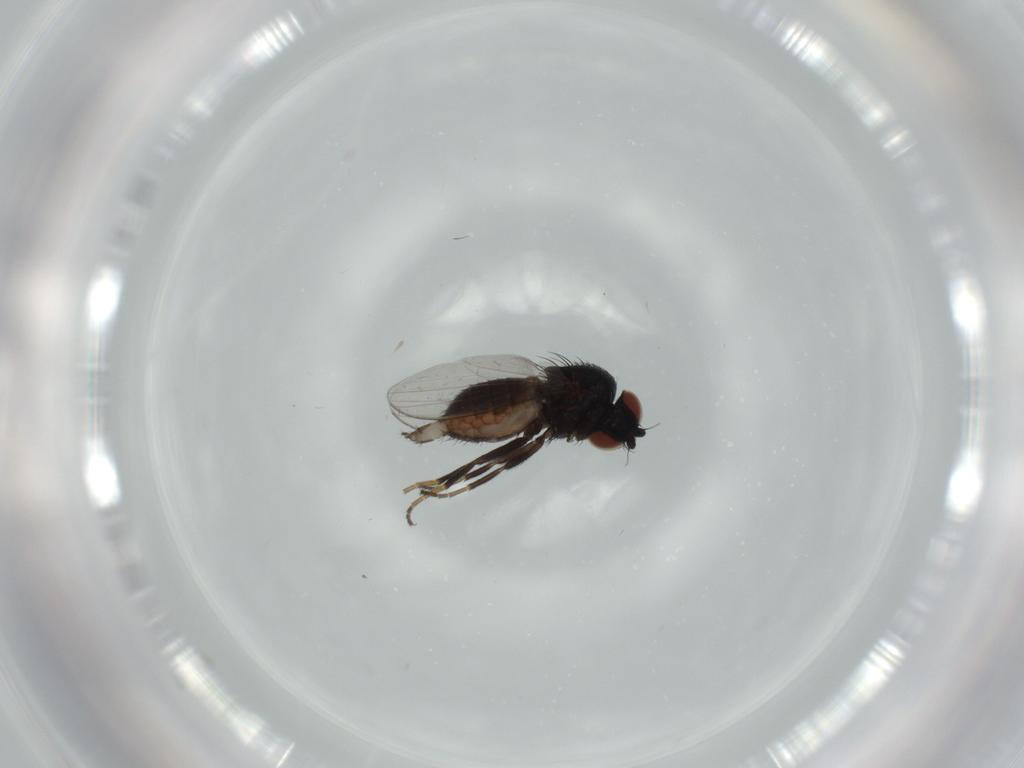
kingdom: Animalia
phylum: Arthropoda
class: Insecta
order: Diptera
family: Milichiidae
